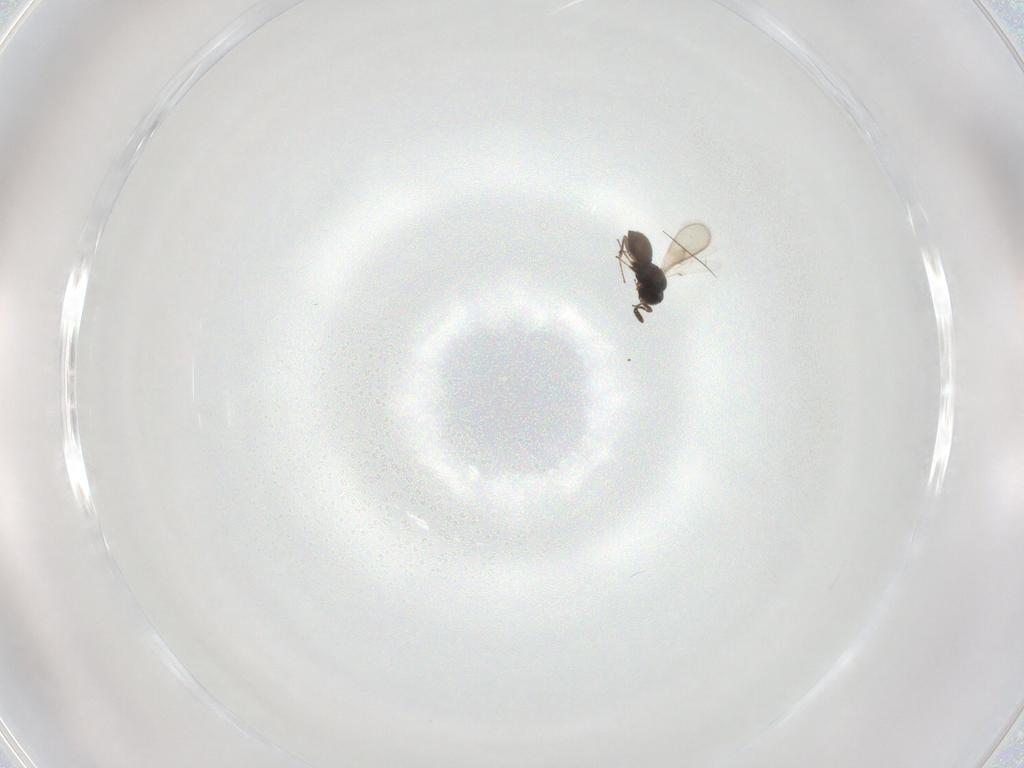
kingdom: Animalia
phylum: Arthropoda
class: Insecta
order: Hymenoptera
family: Scelionidae
